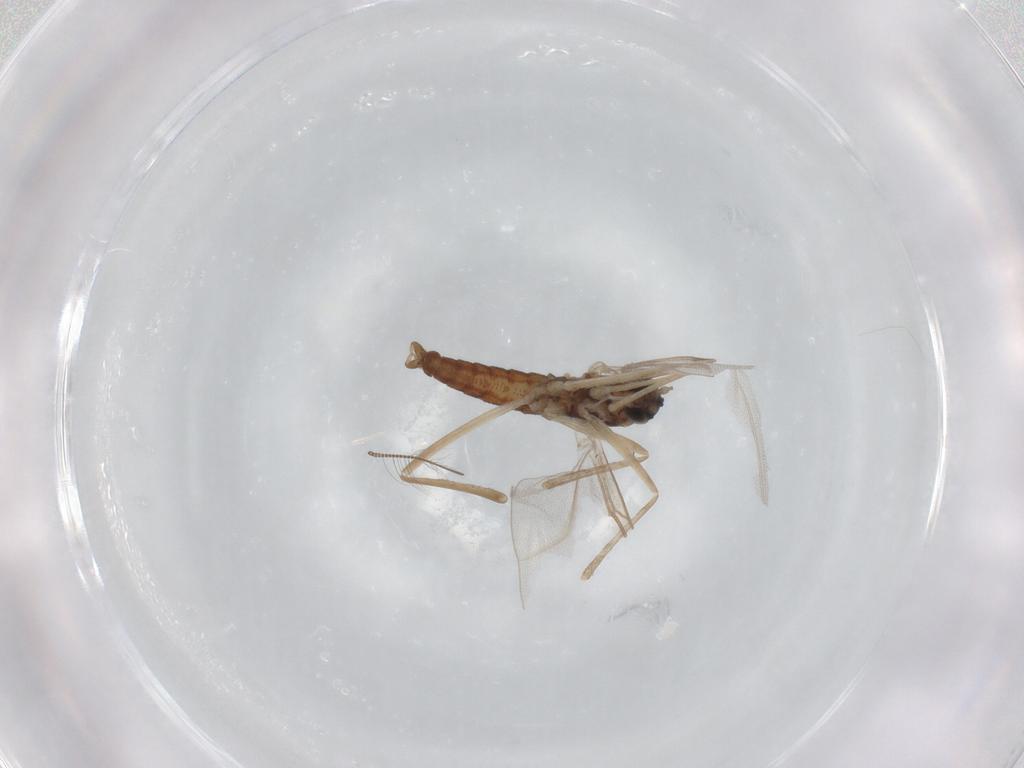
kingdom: Animalia
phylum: Arthropoda
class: Insecta
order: Diptera
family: Cecidomyiidae
